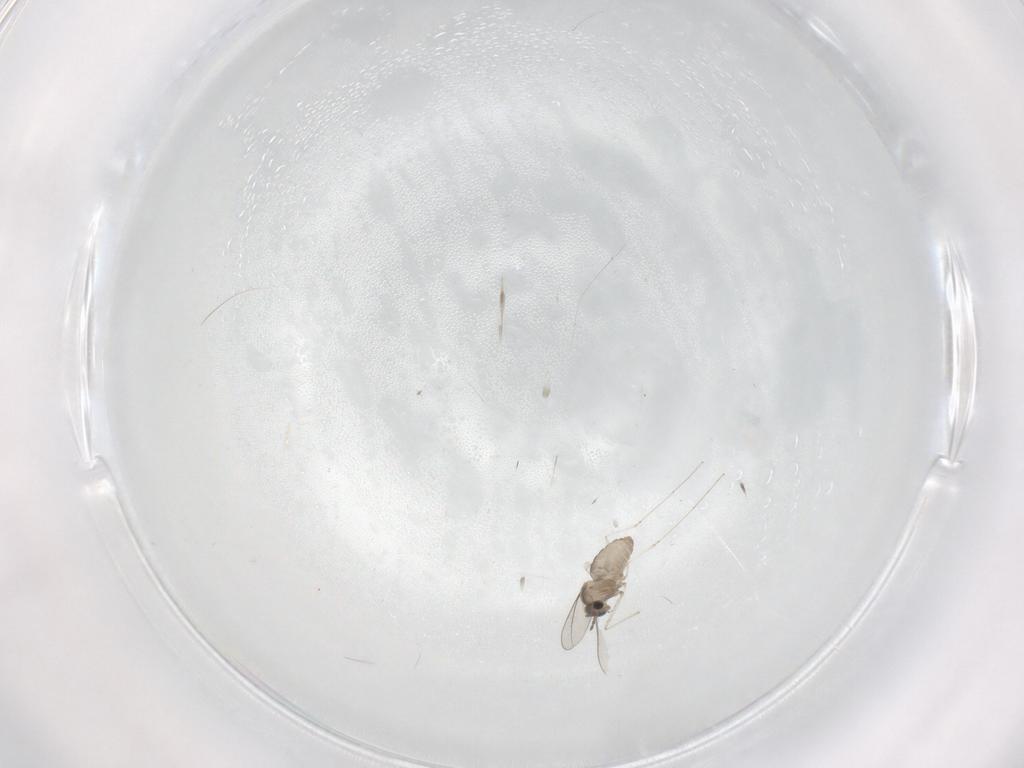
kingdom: Animalia
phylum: Arthropoda
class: Insecta
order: Diptera
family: Cecidomyiidae
